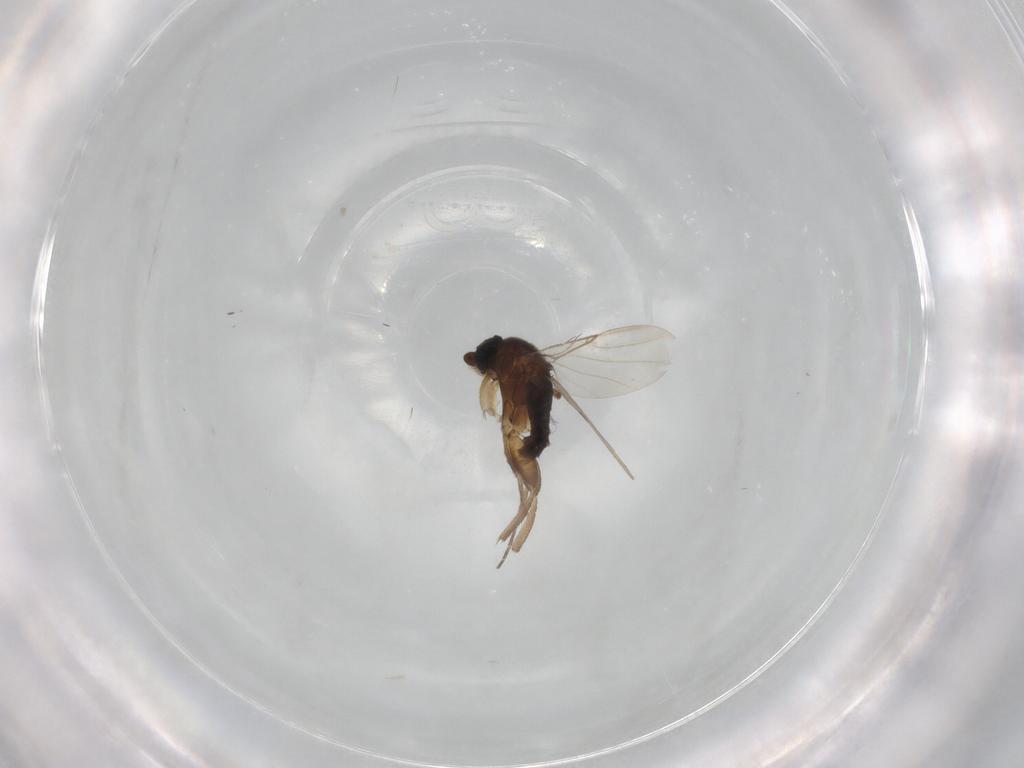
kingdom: Animalia
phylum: Arthropoda
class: Insecta
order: Diptera
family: Phoridae
